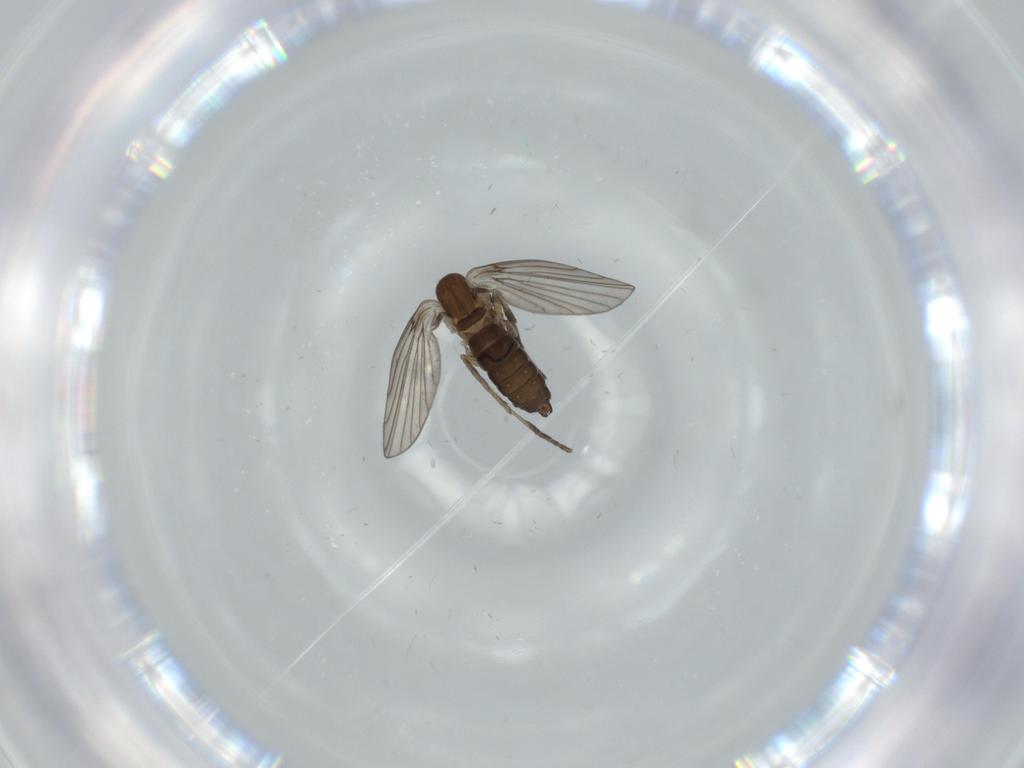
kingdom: Animalia
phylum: Arthropoda
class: Insecta
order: Diptera
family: Psychodidae
